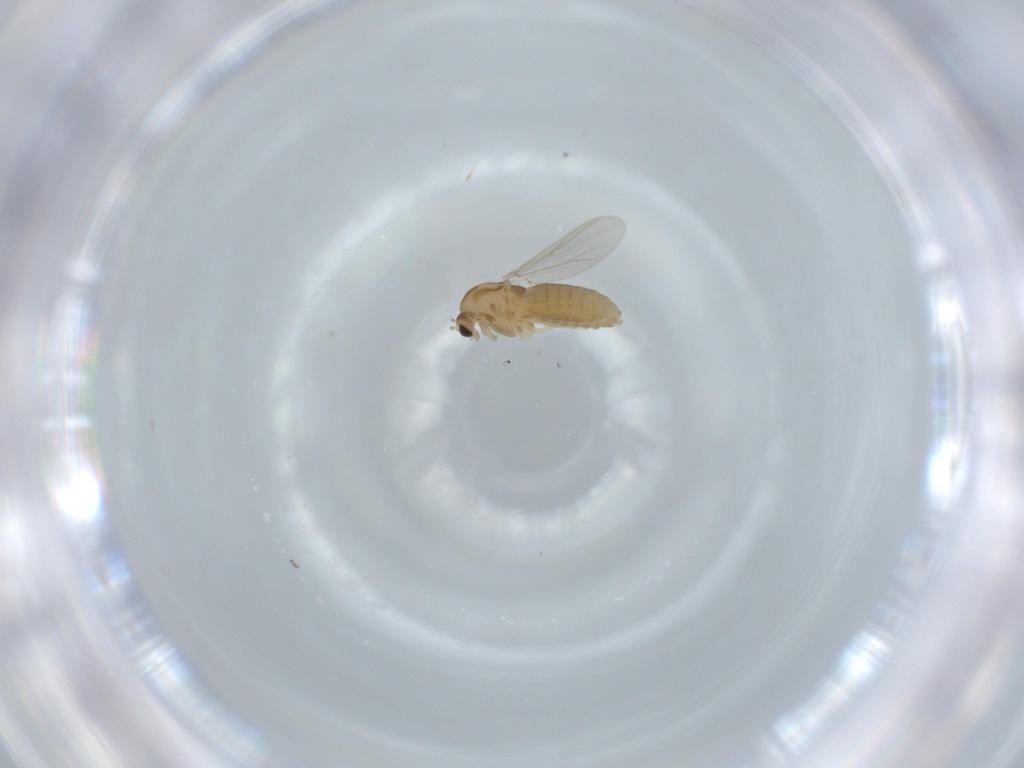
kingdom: Animalia
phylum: Arthropoda
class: Insecta
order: Diptera
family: Chironomidae
